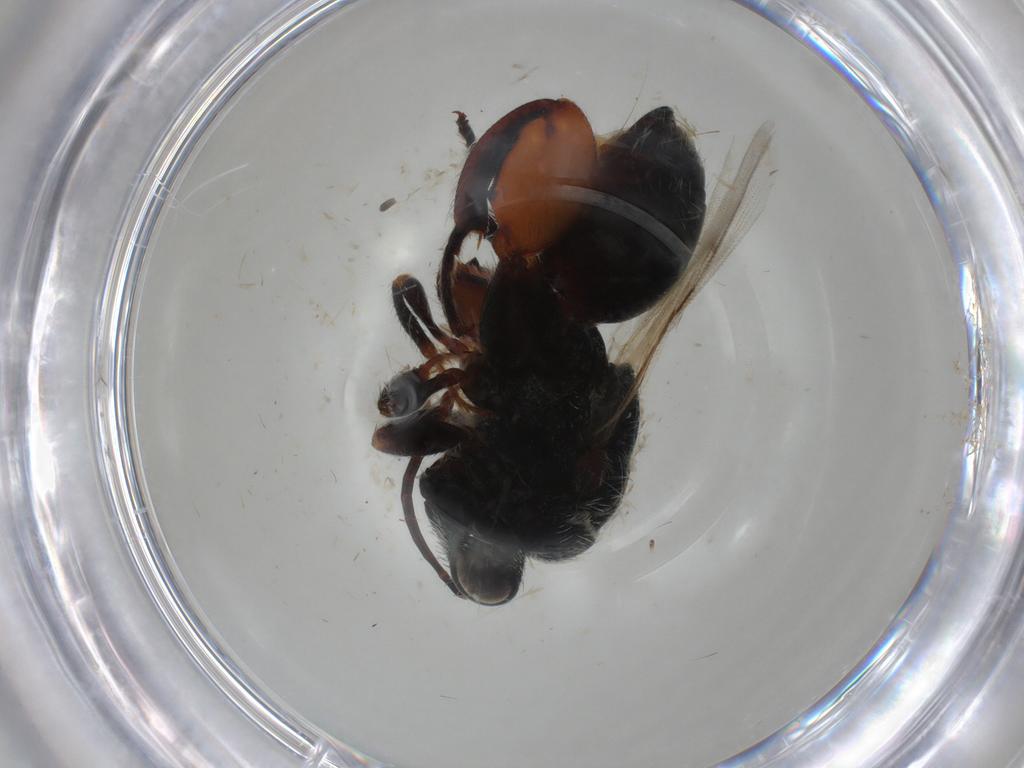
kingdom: Animalia
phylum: Arthropoda
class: Insecta
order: Hymenoptera
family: Chalcididae
